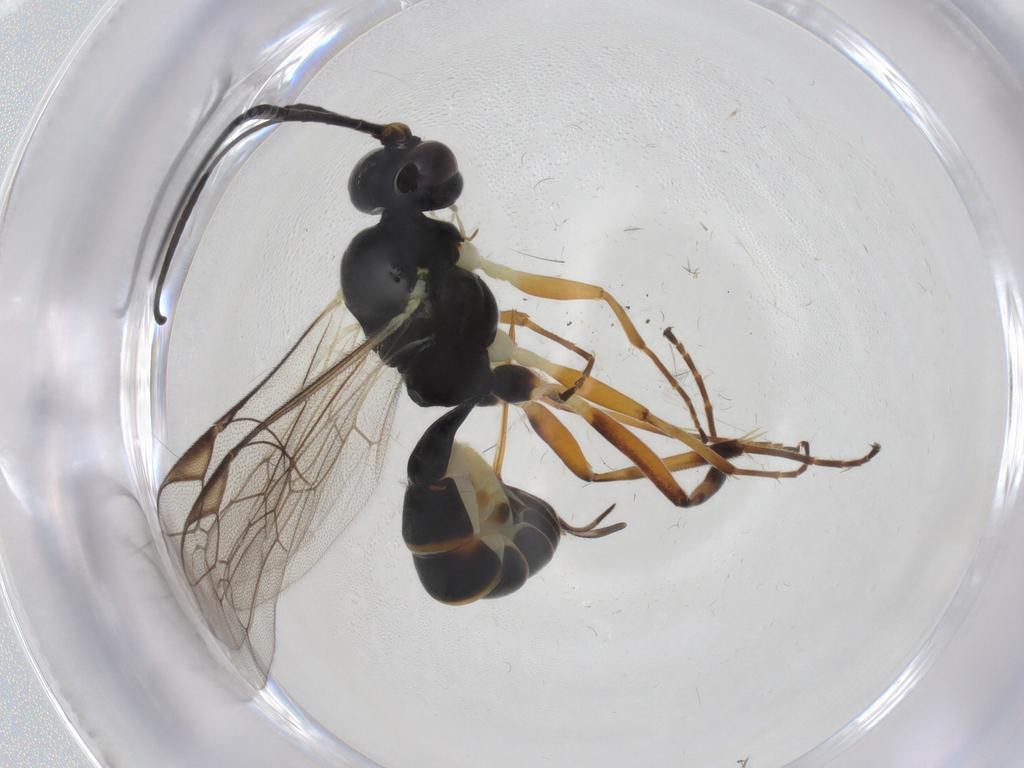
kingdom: Animalia
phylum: Arthropoda
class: Insecta
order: Hymenoptera
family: Ichneumonidae
